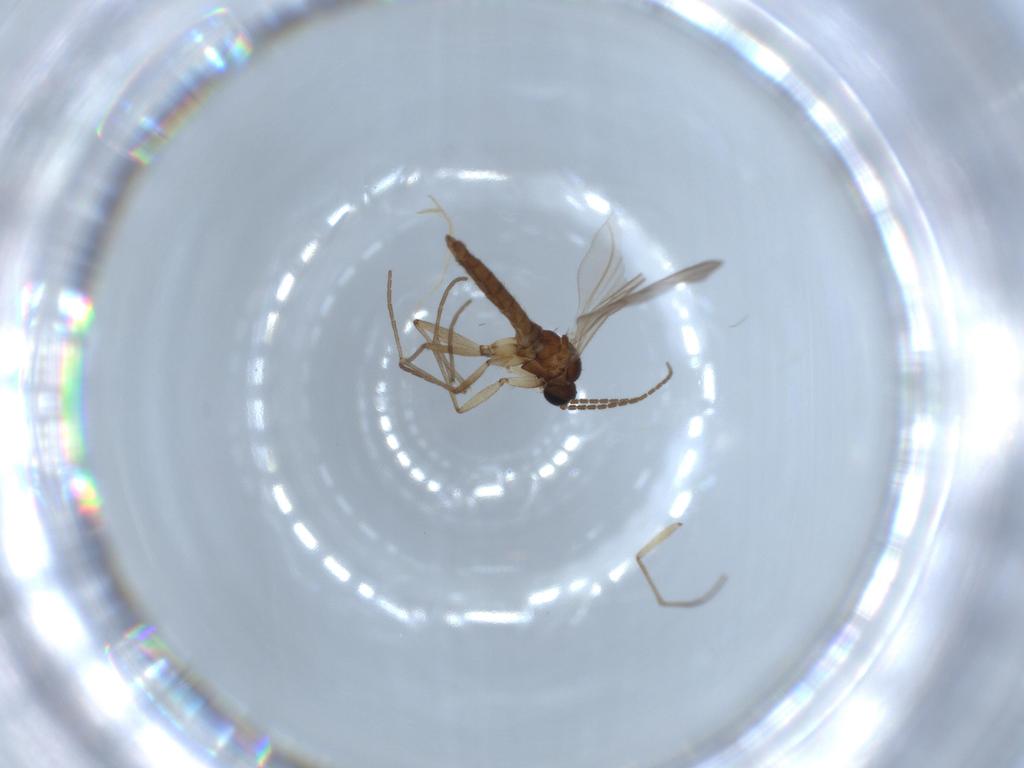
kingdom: Animalia
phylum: Arthropoda
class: Insecta
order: Diptera
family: Sciaridae
